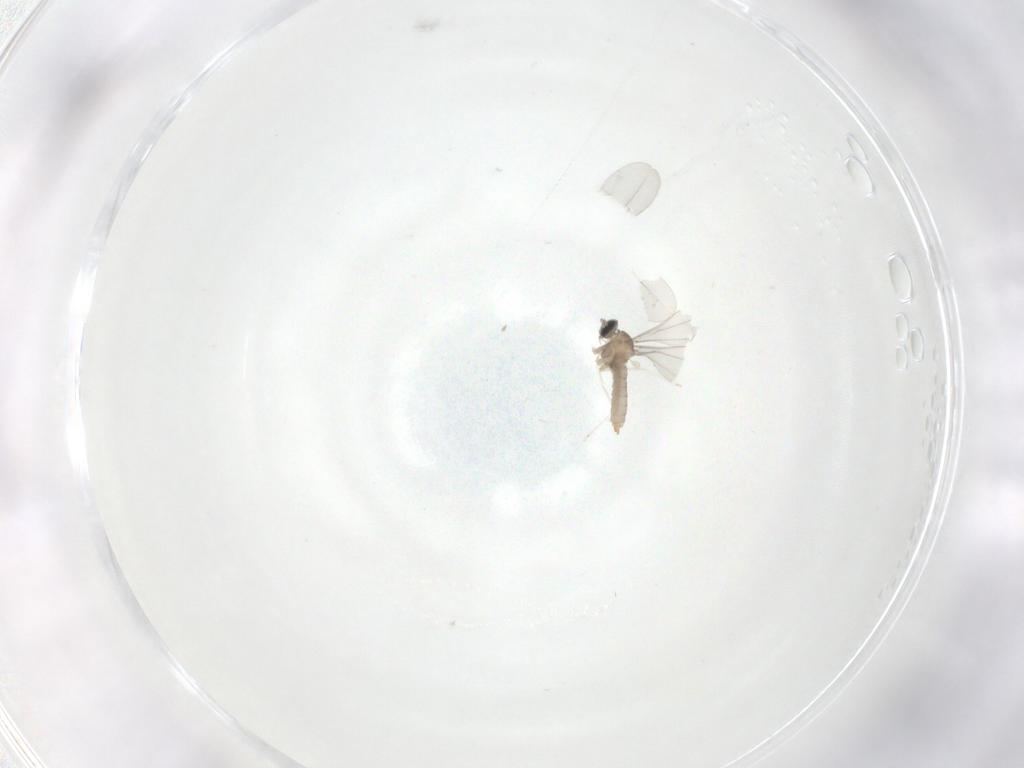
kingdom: Animalia
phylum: Arthropoda
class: Insecta
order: Diptera
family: Cecidomyiidae
